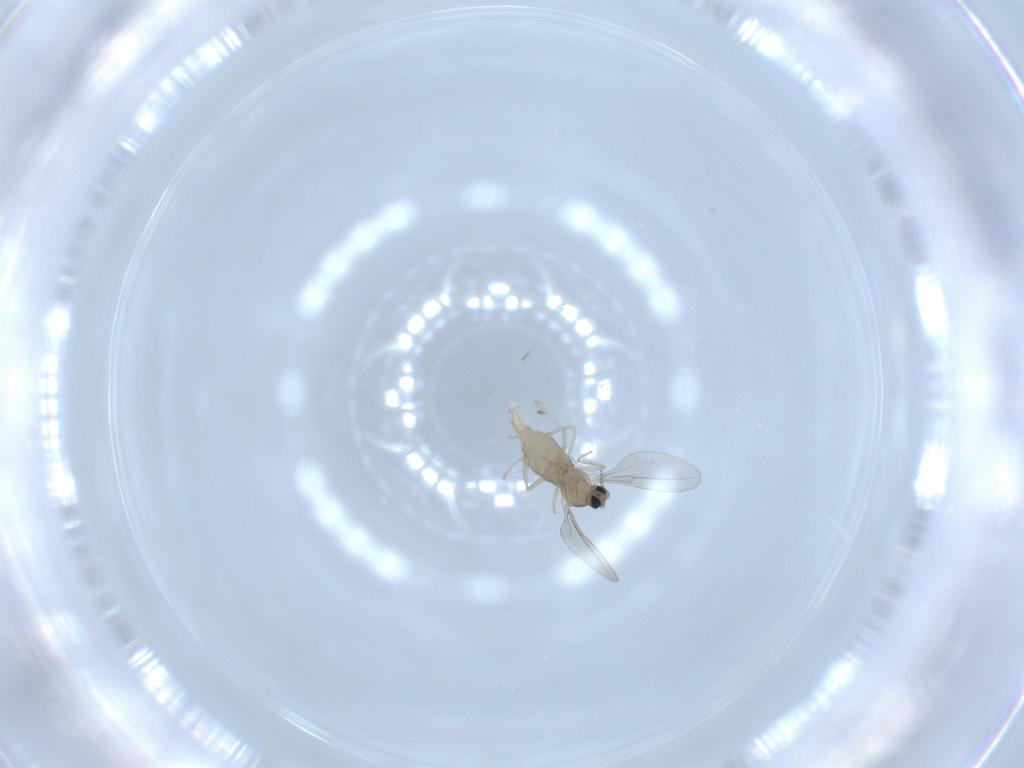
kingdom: Animalia
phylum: Arthropoda
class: Insecta
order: Diptera
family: Cecidomyiidae
